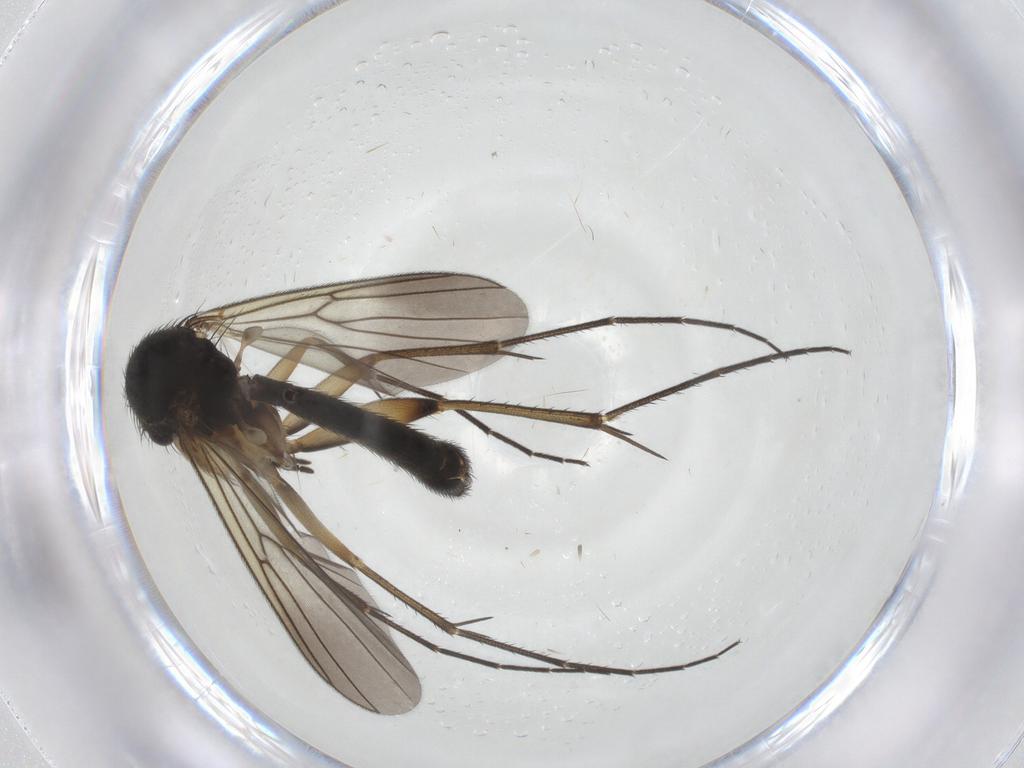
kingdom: Animalia
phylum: Arthropoda
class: Insecta
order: Diptera
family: Mycetophilidae
